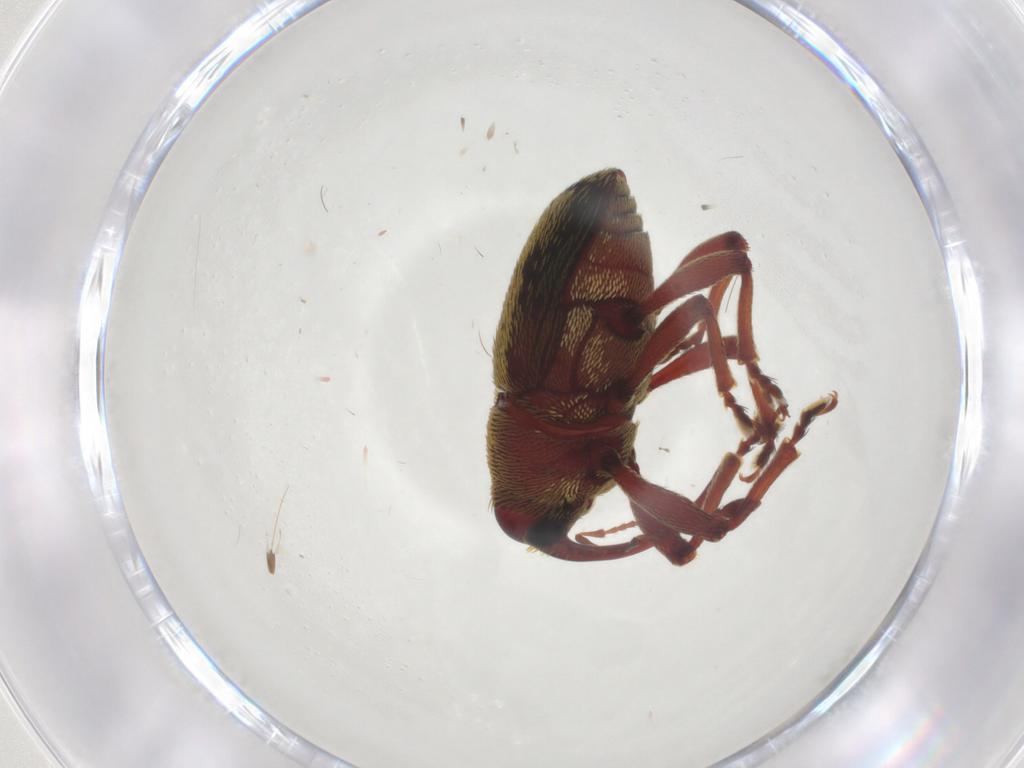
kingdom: Animalia
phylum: Arthropoda
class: Insecta
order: Coleoptera
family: Curculionidae
